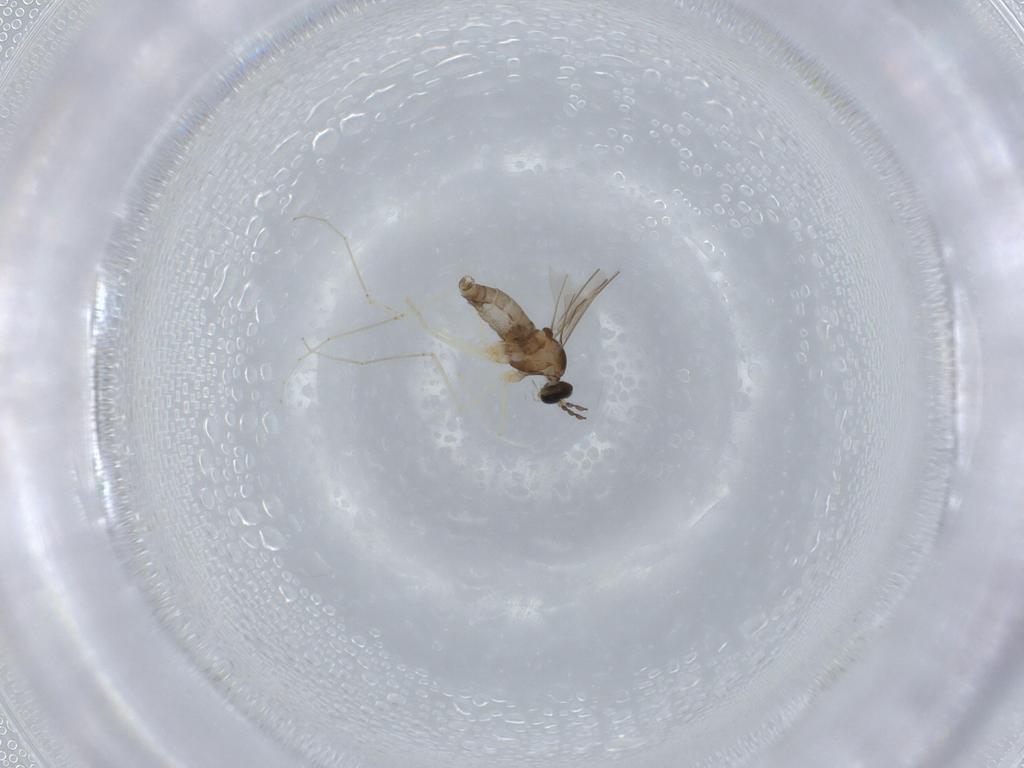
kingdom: Animalia
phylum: Arthropoda
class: Insecta
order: Diptera
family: Cecidomyiidae
